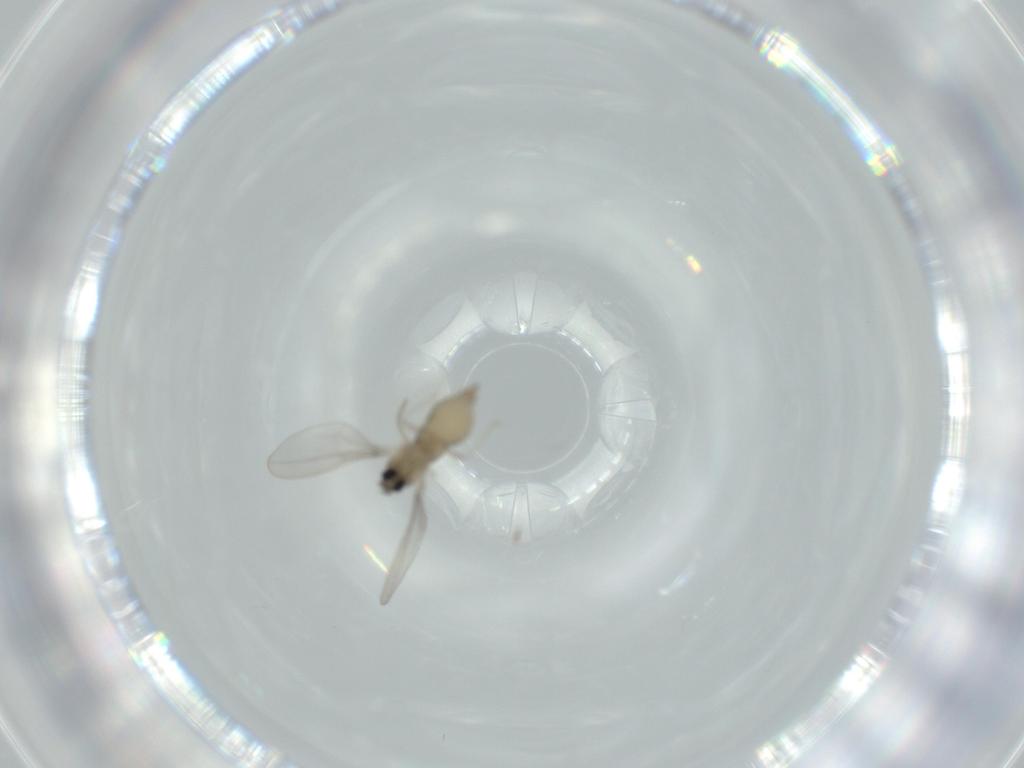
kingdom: Animalia
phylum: Arthropoda
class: Insecta
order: Diptera
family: Cecidomyiidae
